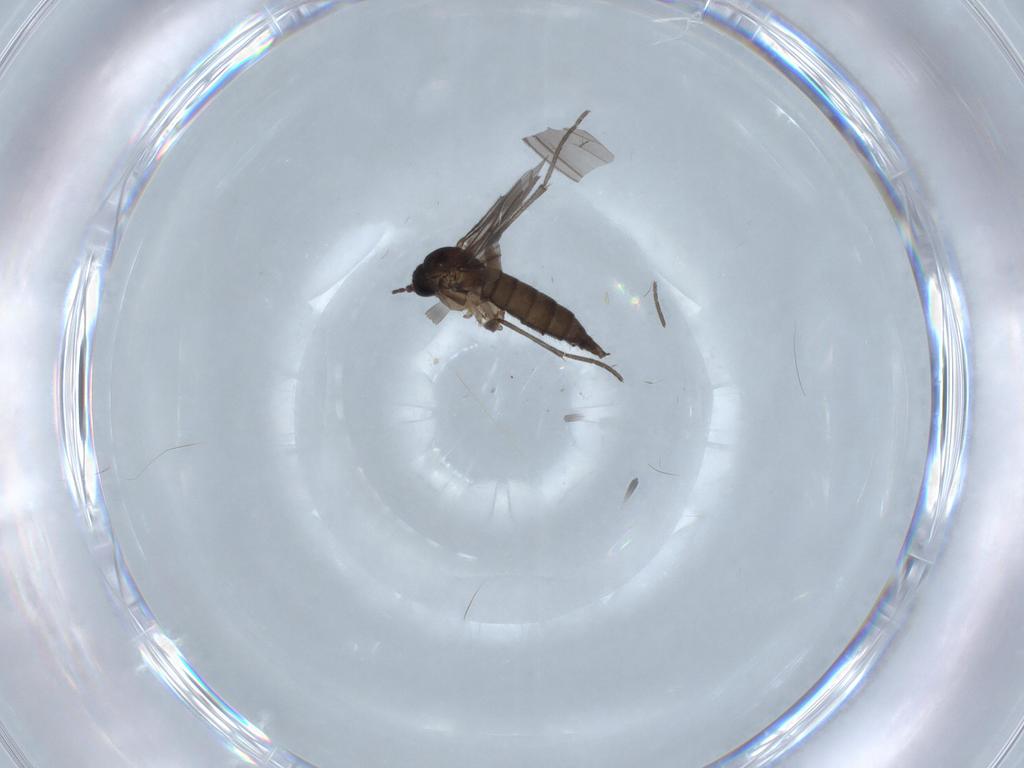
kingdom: Animalia
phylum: Arthropoda
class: Insecta
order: Diptera
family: Sciaridae
